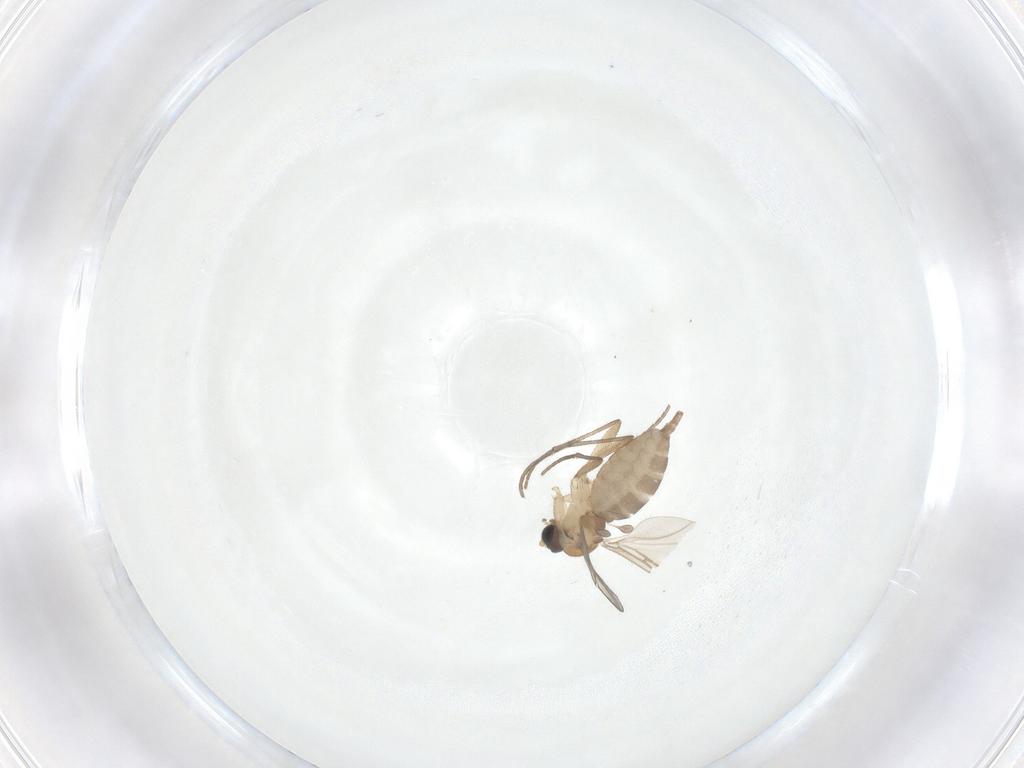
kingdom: Animalia
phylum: Arthropoda
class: Insecta
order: Diptera
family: Sciaridae
